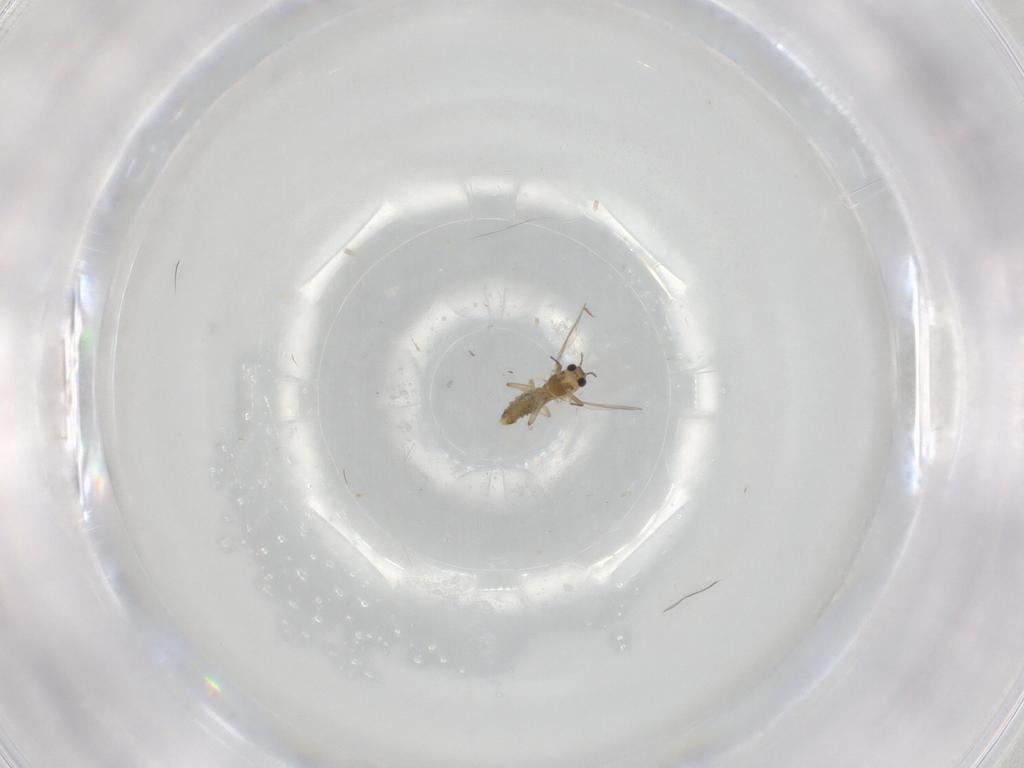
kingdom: Animalia
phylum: Arthropoda
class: Insecta
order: Diptera
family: Chironomidae
